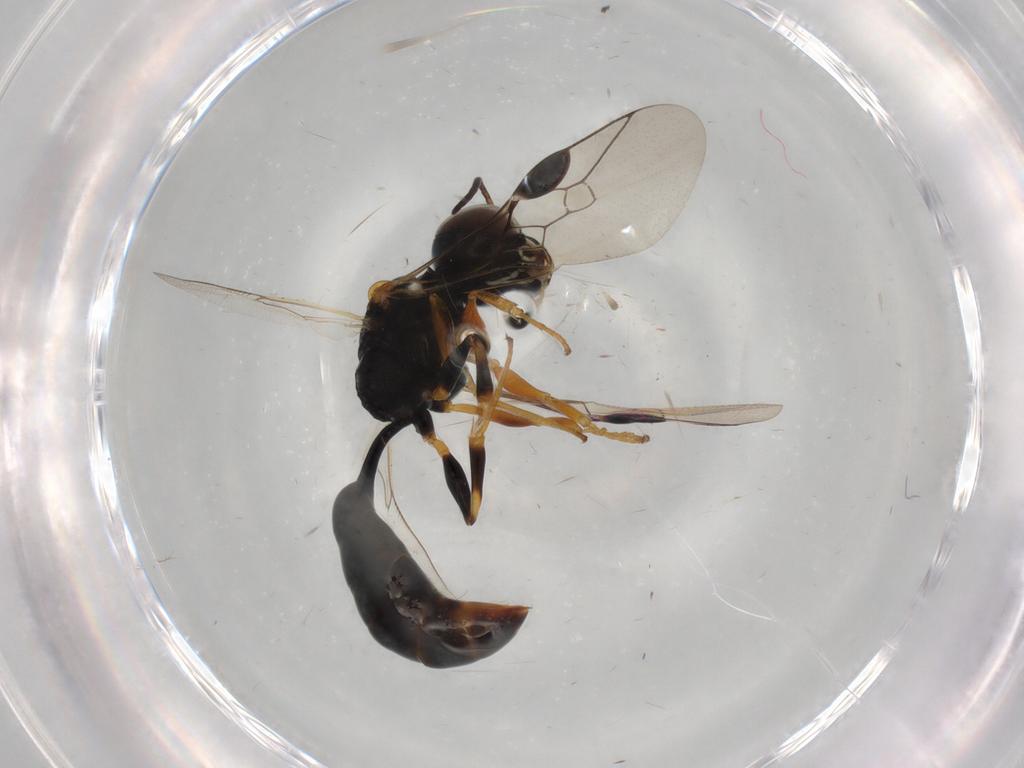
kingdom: Animalia
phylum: Arthropoda
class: Insecta
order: Hymenoptera
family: Pemphredonidae
